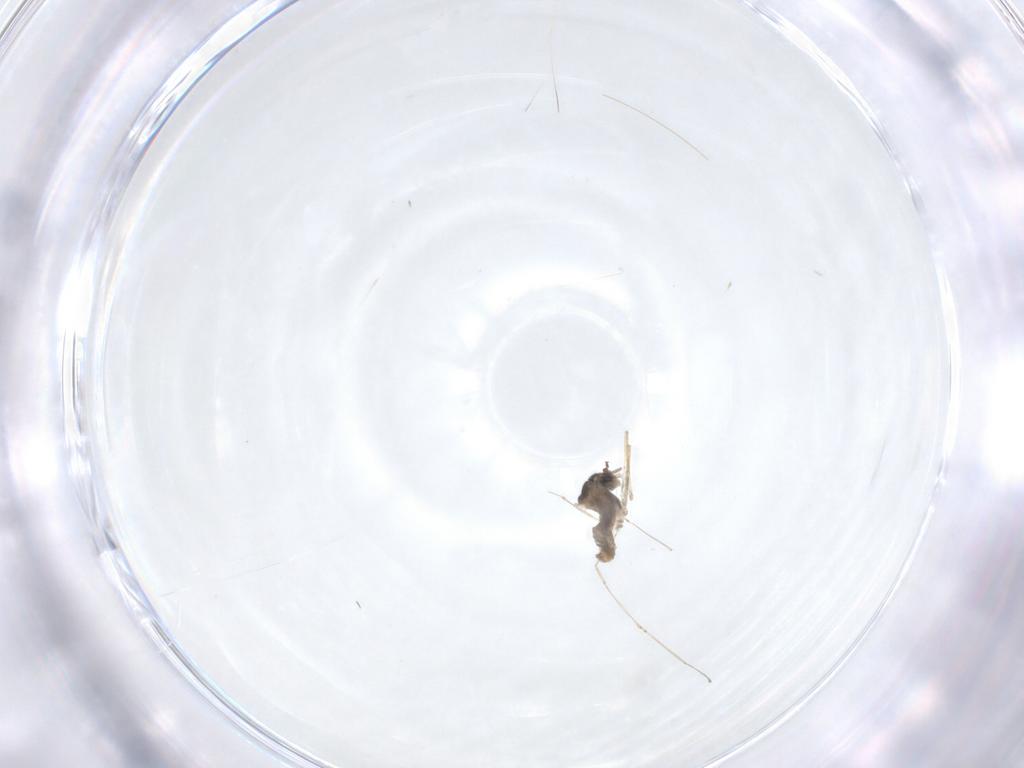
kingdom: Animalia
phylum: Arthropoda
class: Insecta
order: Diptera
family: Cecidomyiidae
